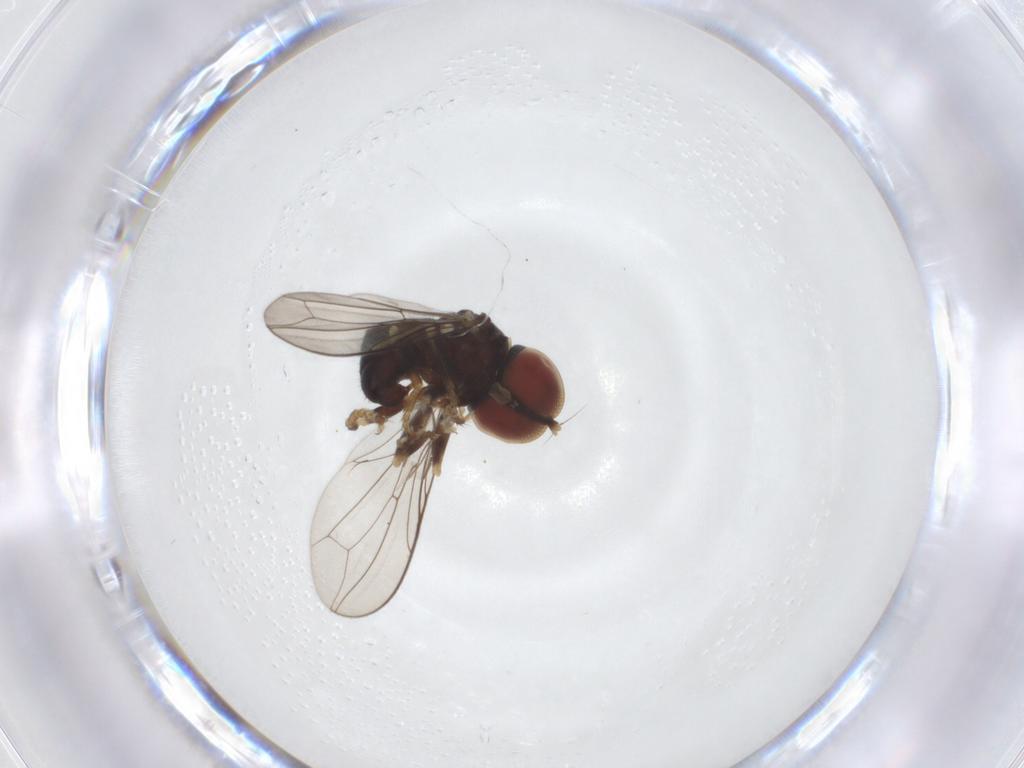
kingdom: Animalia
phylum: Arthropoda
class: Insecta
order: Diptera
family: Pipunculidae
